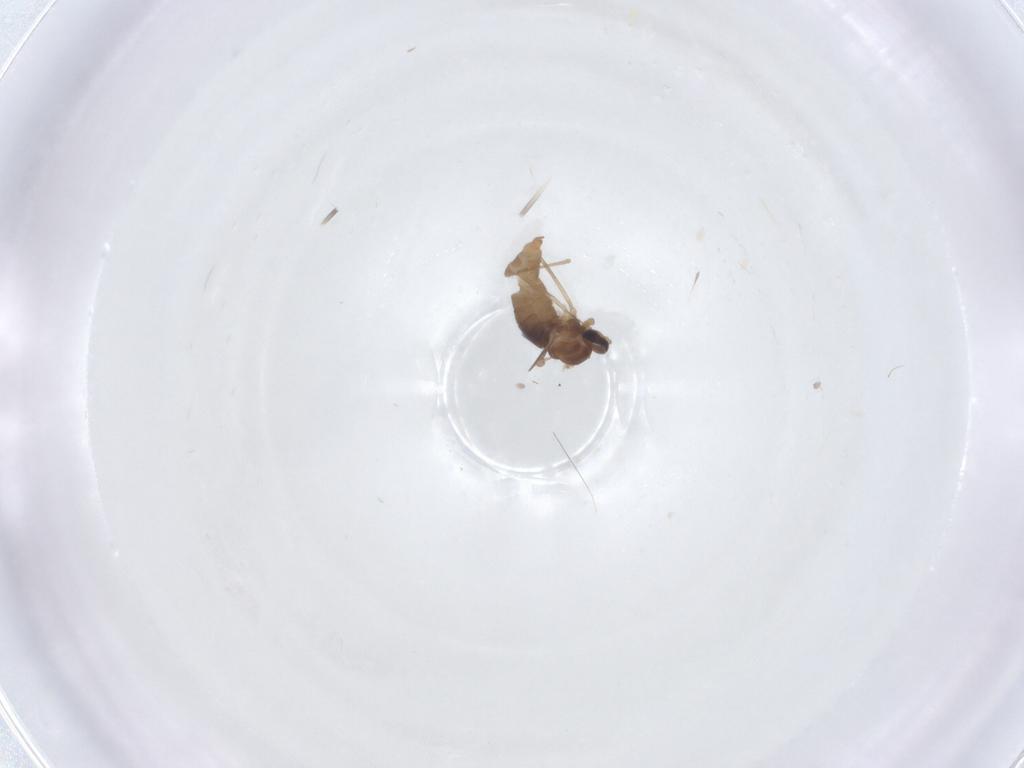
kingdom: Animalia
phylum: Arthropoda
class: Insecta
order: Diptera
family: Cecidomyiidae
